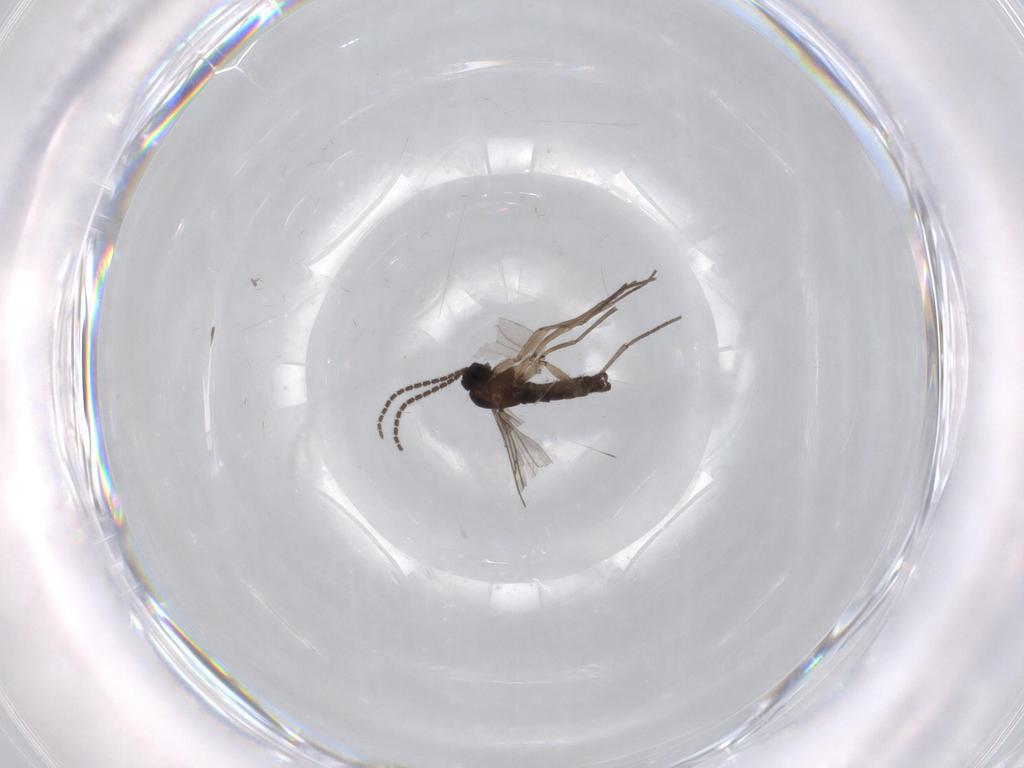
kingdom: Animalia
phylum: Arthropoda
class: Insecta
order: Diptera
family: Sciaridae
